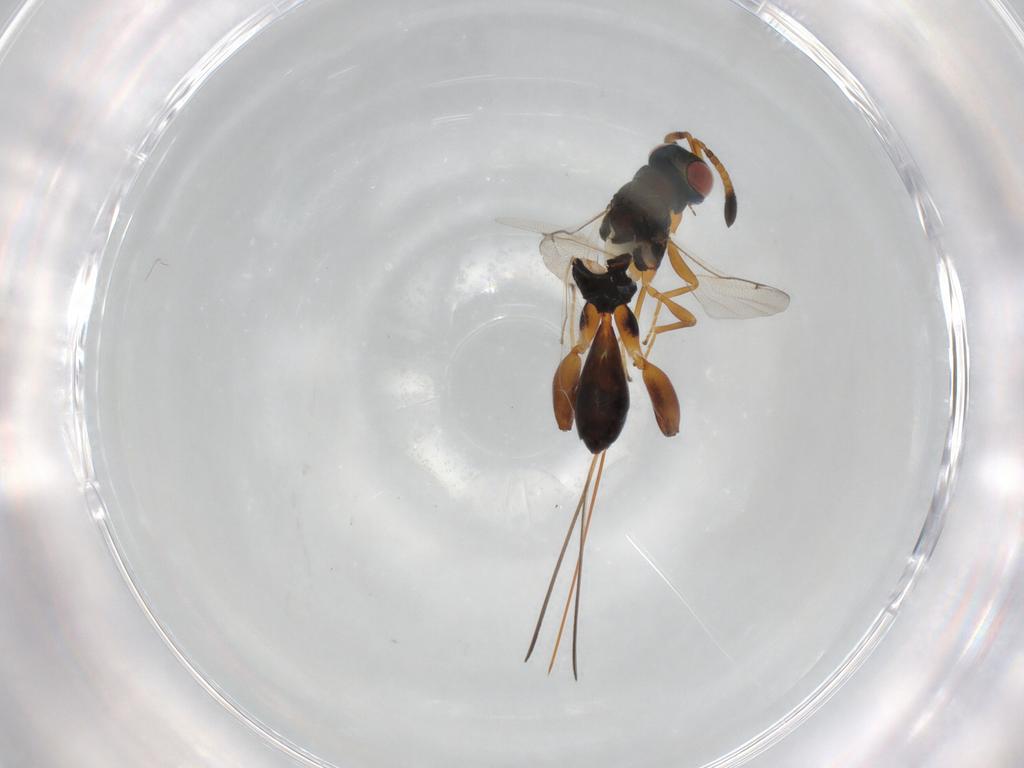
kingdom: Animalia
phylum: Arthropoda
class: Insecta
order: Hymenoptera
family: Torymidae
